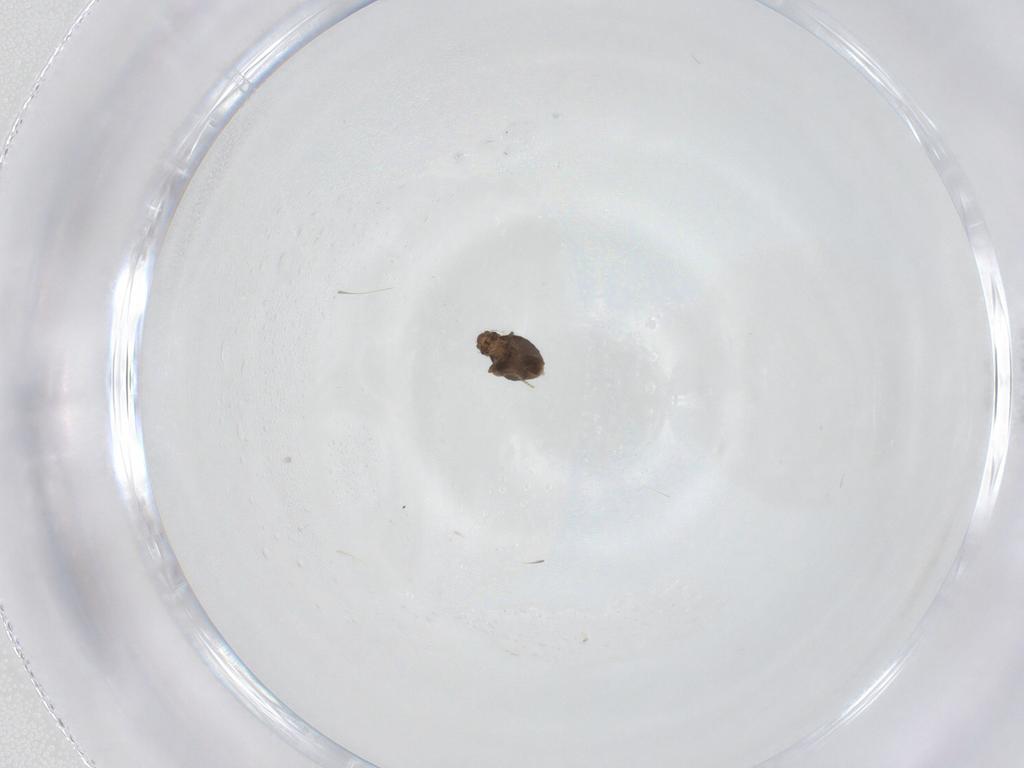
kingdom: Animalia
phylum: Arthropoda
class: Insecta
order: Diptera
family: Phoridae
